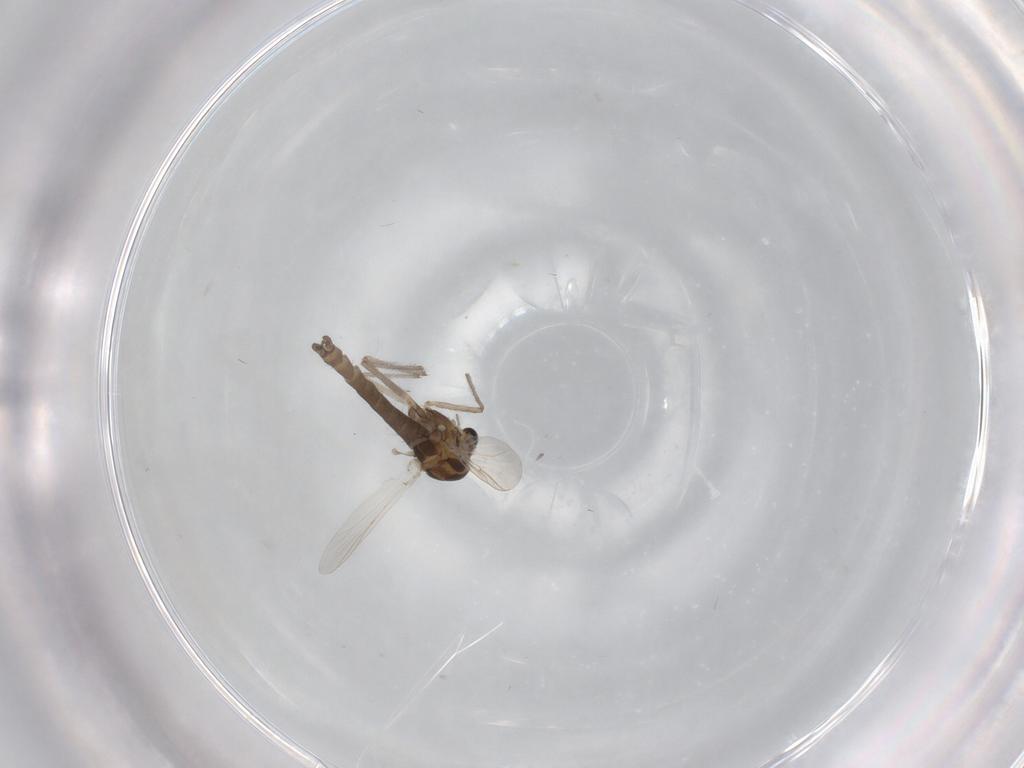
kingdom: Animalia
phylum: Arthropoda
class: Insecta
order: Diptera
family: Chironomidae
